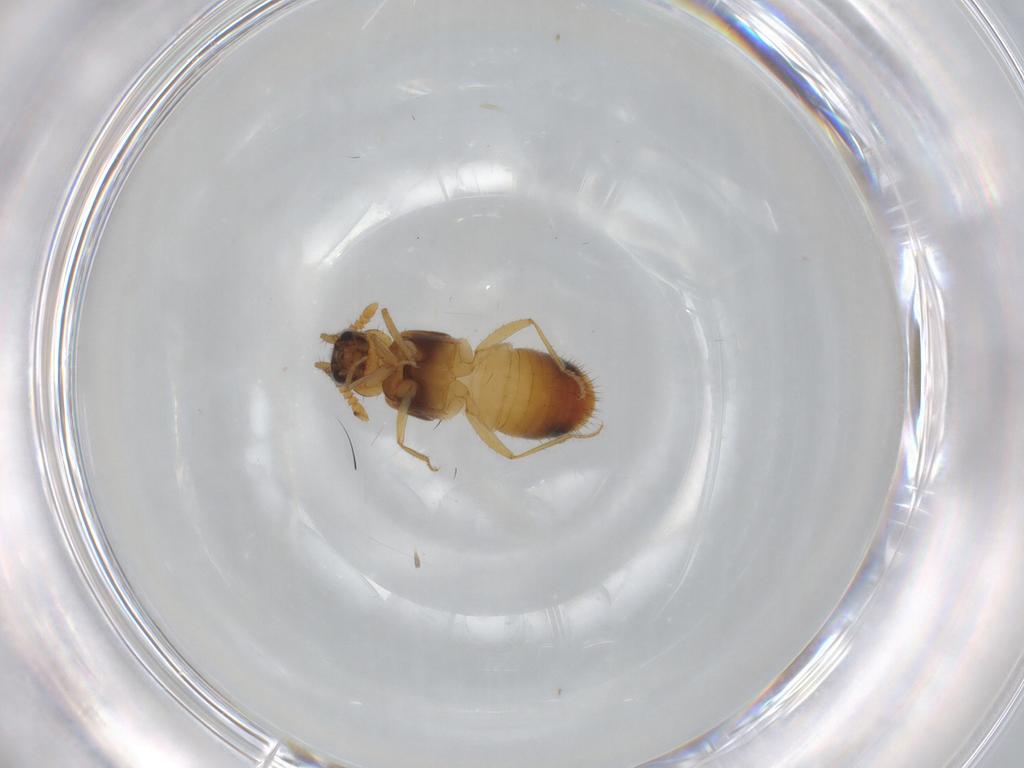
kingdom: Animalia
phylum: Arthropoda
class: Insecta
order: Coleoptera
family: Staphylinidae
